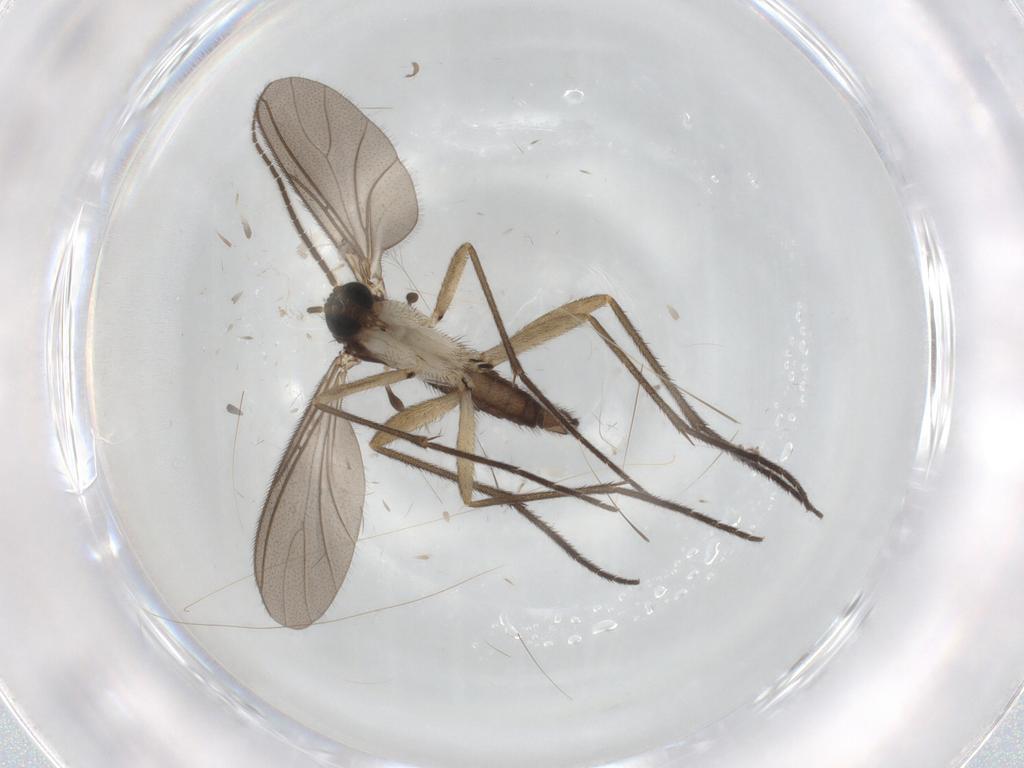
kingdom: Animalia
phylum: Arthropoda
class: Insecta
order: Diptera
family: Sciaridae
